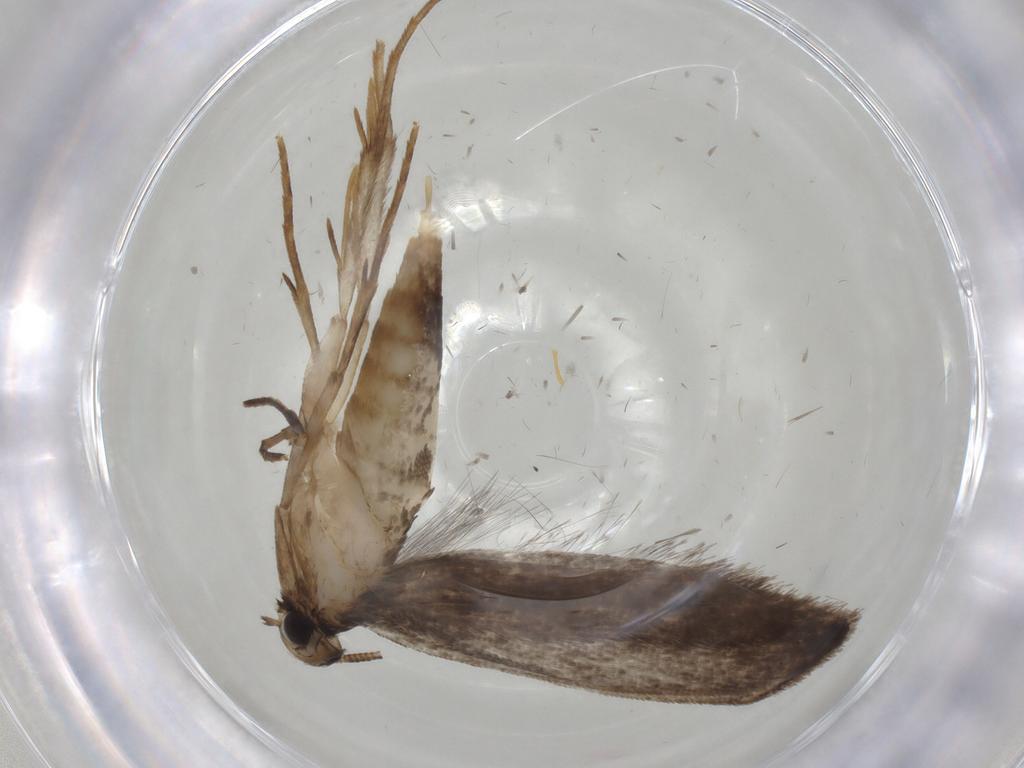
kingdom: Animalia
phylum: Arthropoda
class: Insecta
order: Lepidoptera
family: Tineidae
